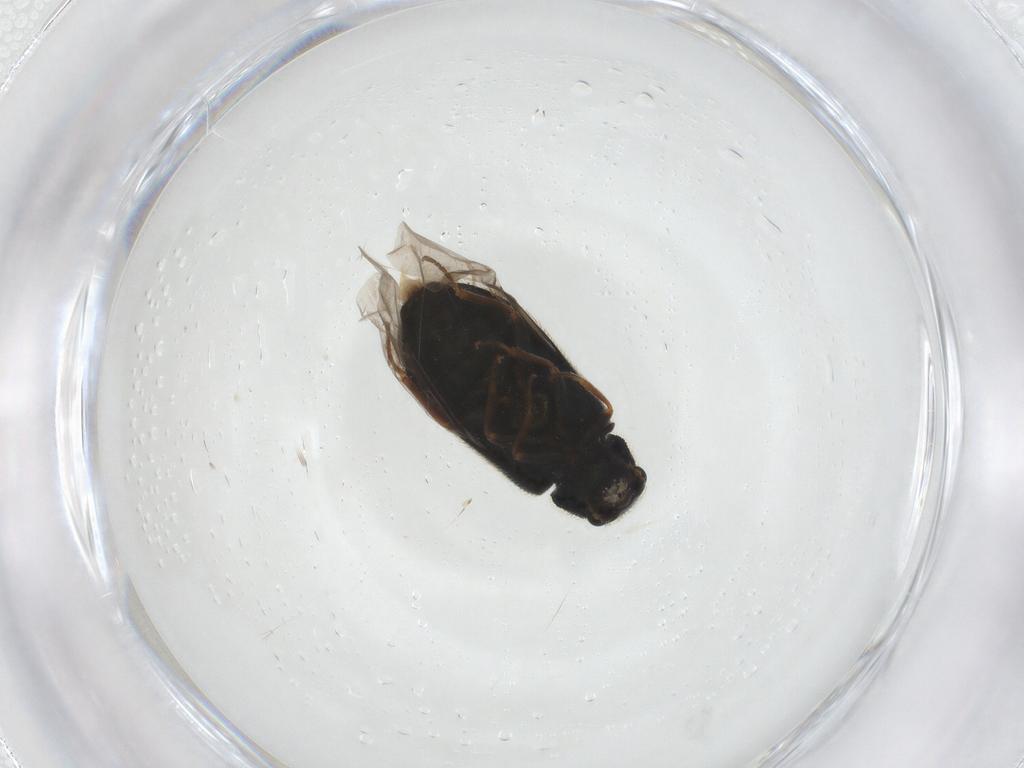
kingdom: Animalia
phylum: Arthropoda
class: Insecta
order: Coleoptera
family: Melyridae
